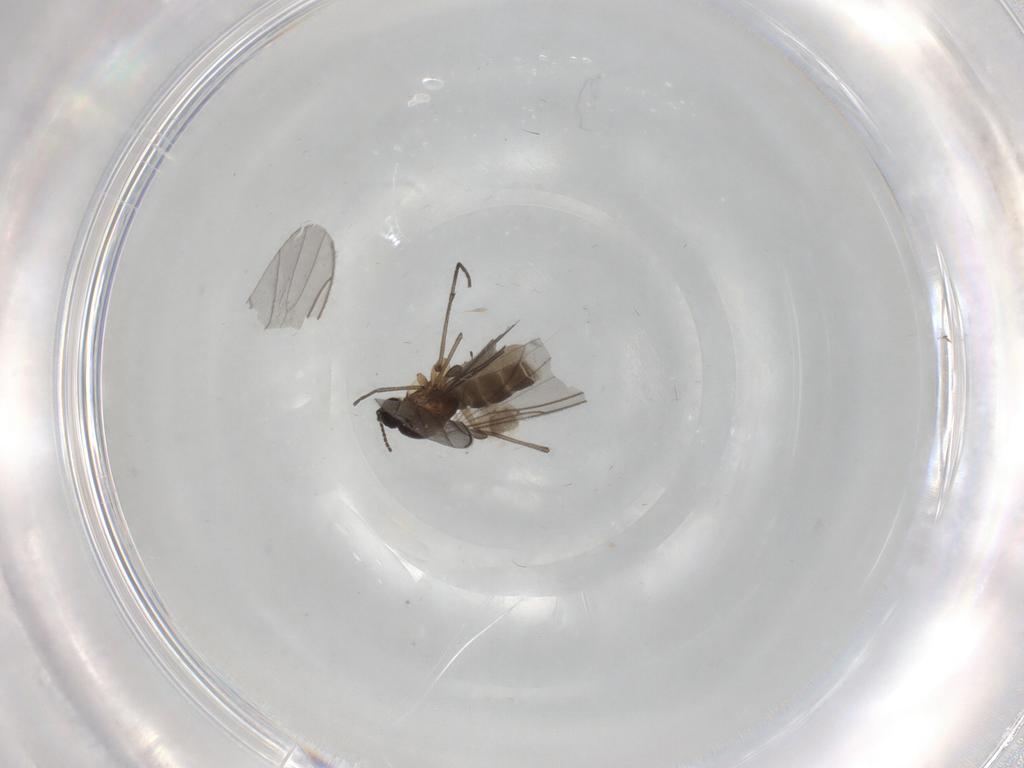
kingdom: Animalia
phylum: Arthropoda
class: Insecta
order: Diptera
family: Sciaridae
